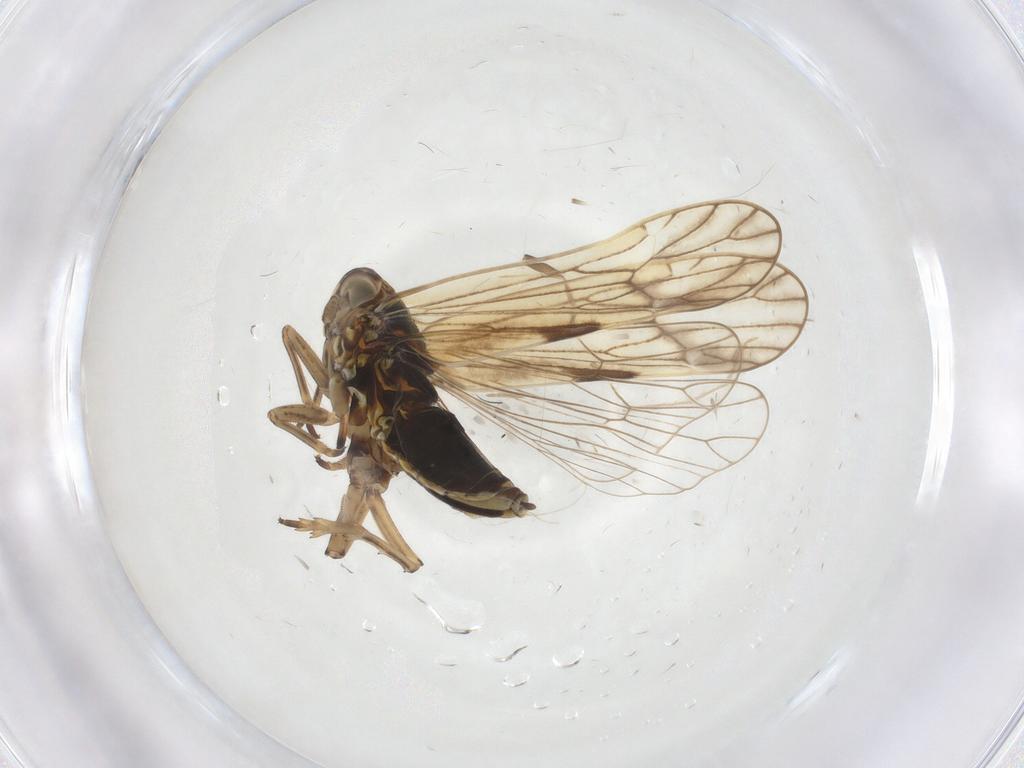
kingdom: Animalia
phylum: Arthropoda
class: Insecta
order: Hemiptera
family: Delphacidae
